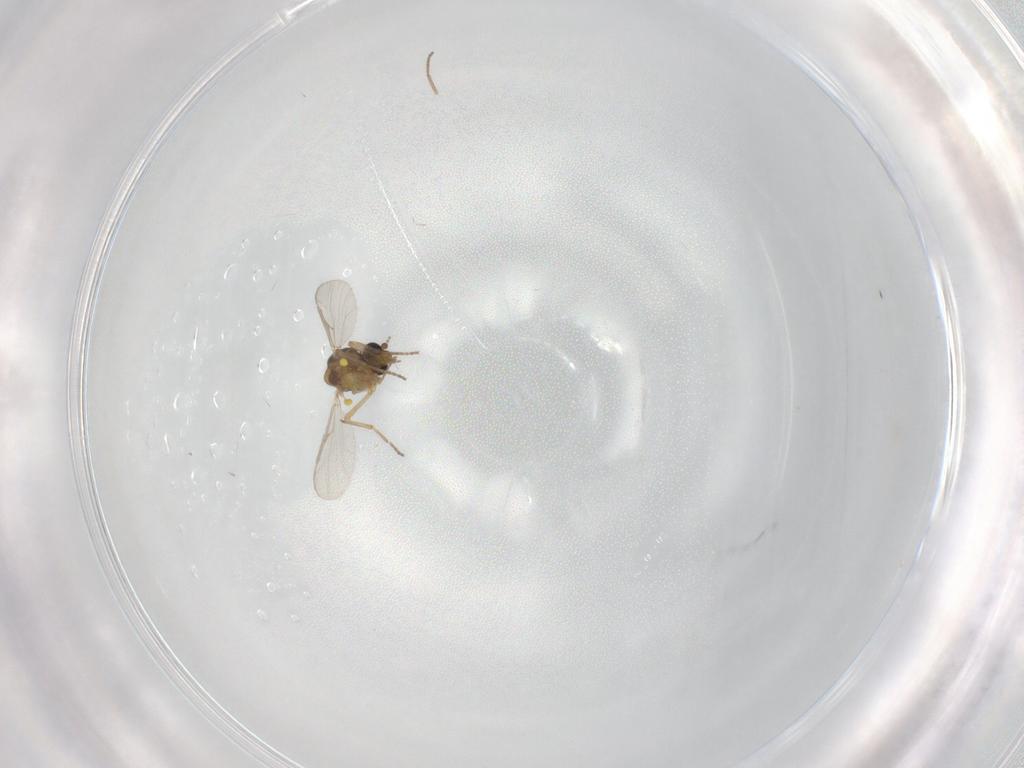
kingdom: Animalia
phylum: Arthropoda
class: Insecta
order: Diptera
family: Ceratopogonidae
